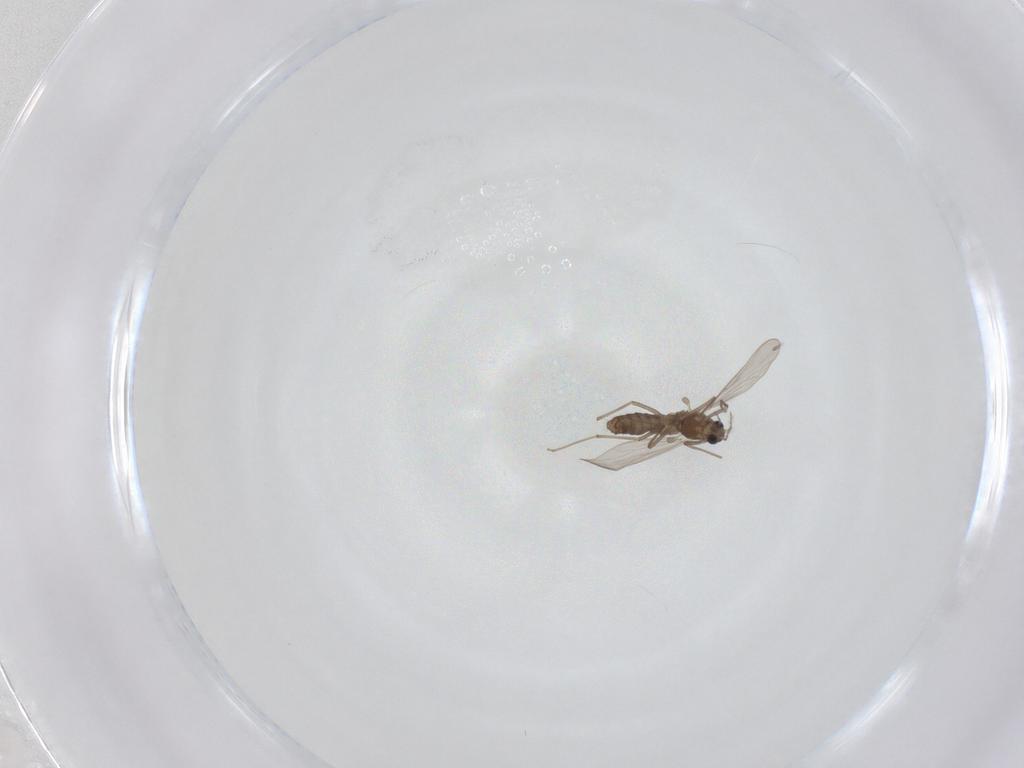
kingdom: Animalia
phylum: Arthropoda
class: Insecta
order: Diptera
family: Chironomidae
